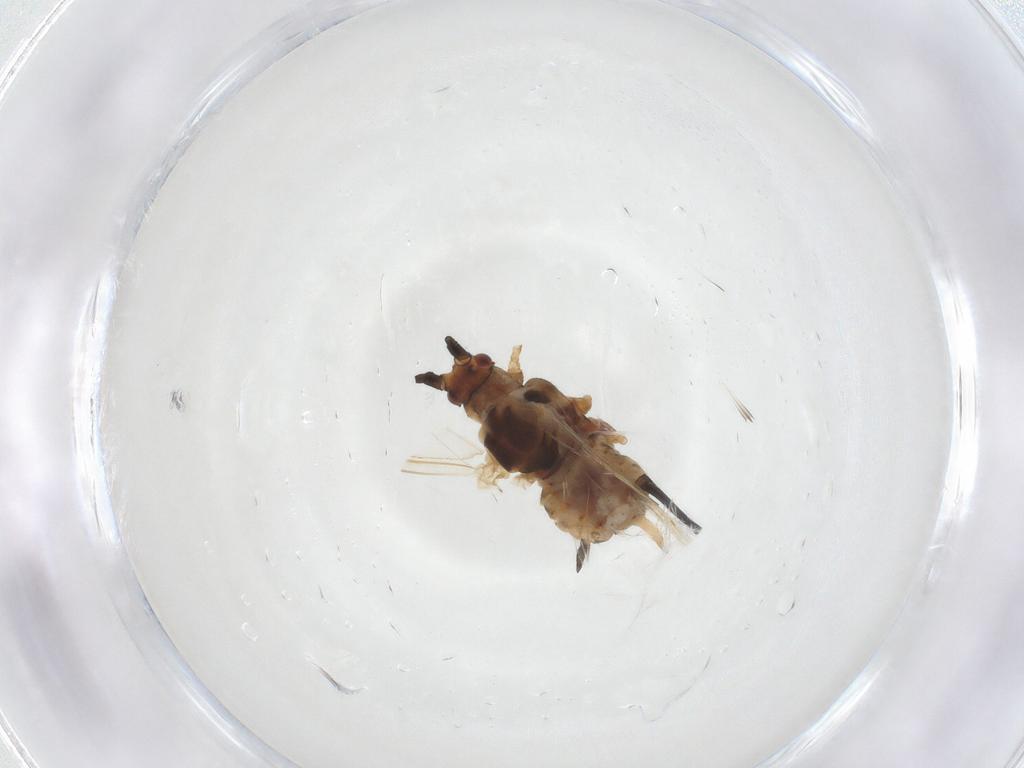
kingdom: Animalia
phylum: Arthropoda
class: Insecta
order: Hemiptera
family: Aphididae
